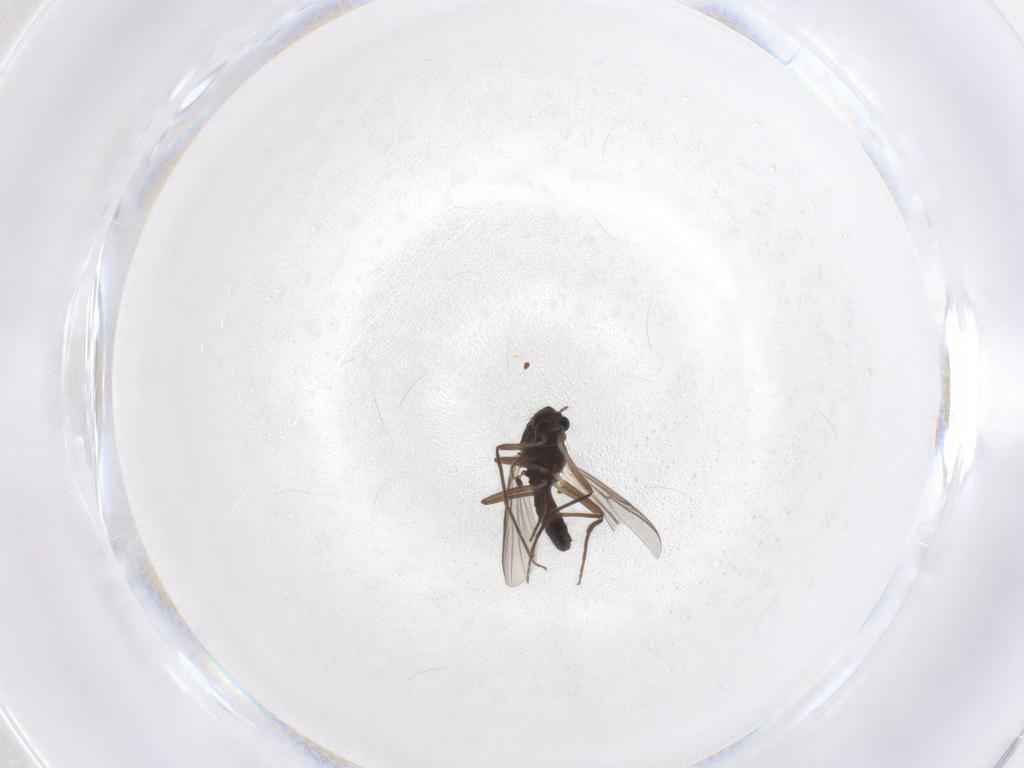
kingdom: Animalia
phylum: Arthropoda
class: Insecta
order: Diptera
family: Chironomidae
